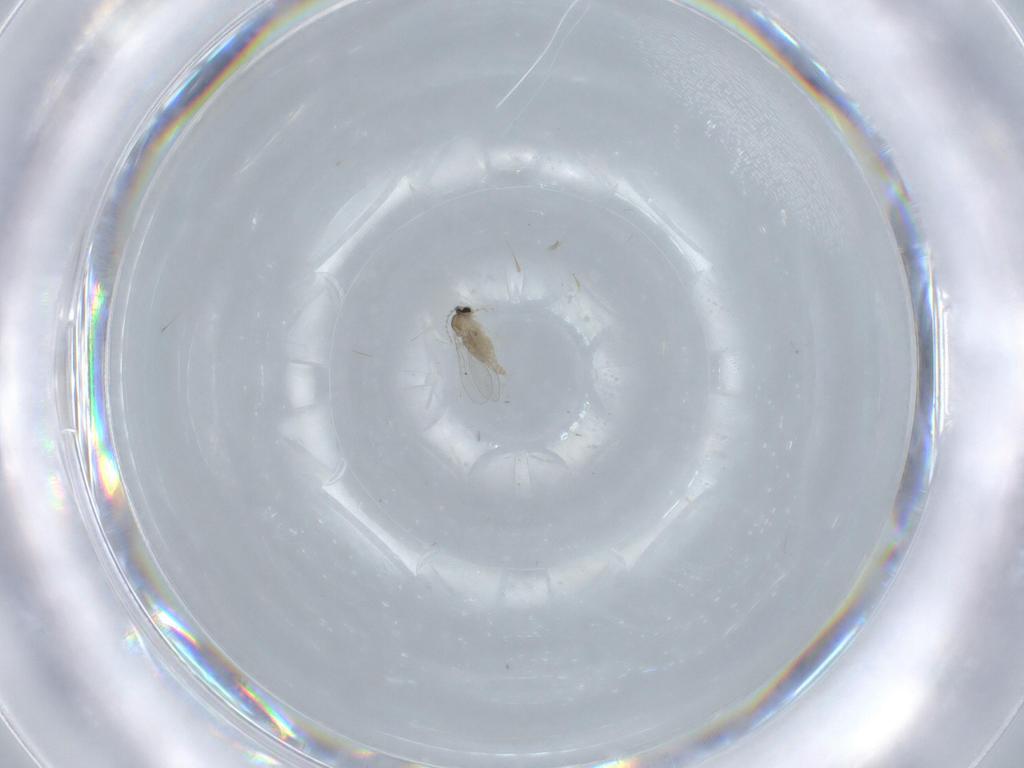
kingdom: Animalia
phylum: Arthropoda
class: Insecta
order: Diptera
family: Cecidomyiidae
